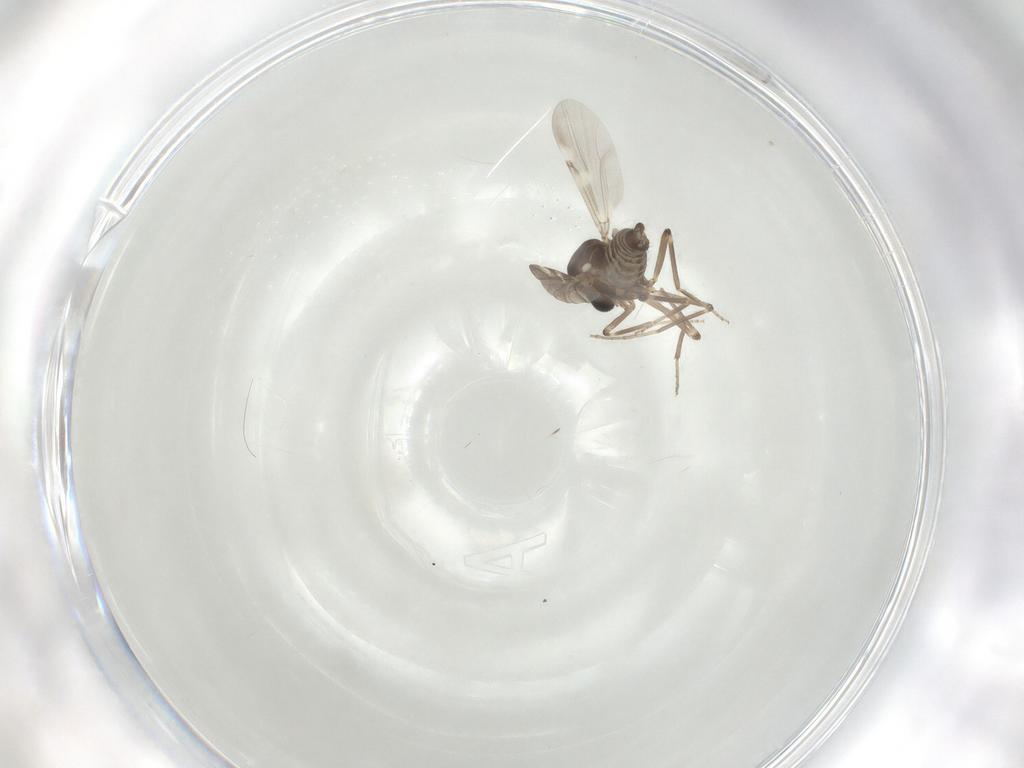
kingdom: Animalia
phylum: Arthropoda
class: Insecta
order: Diptera
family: Ceratopogonidae
